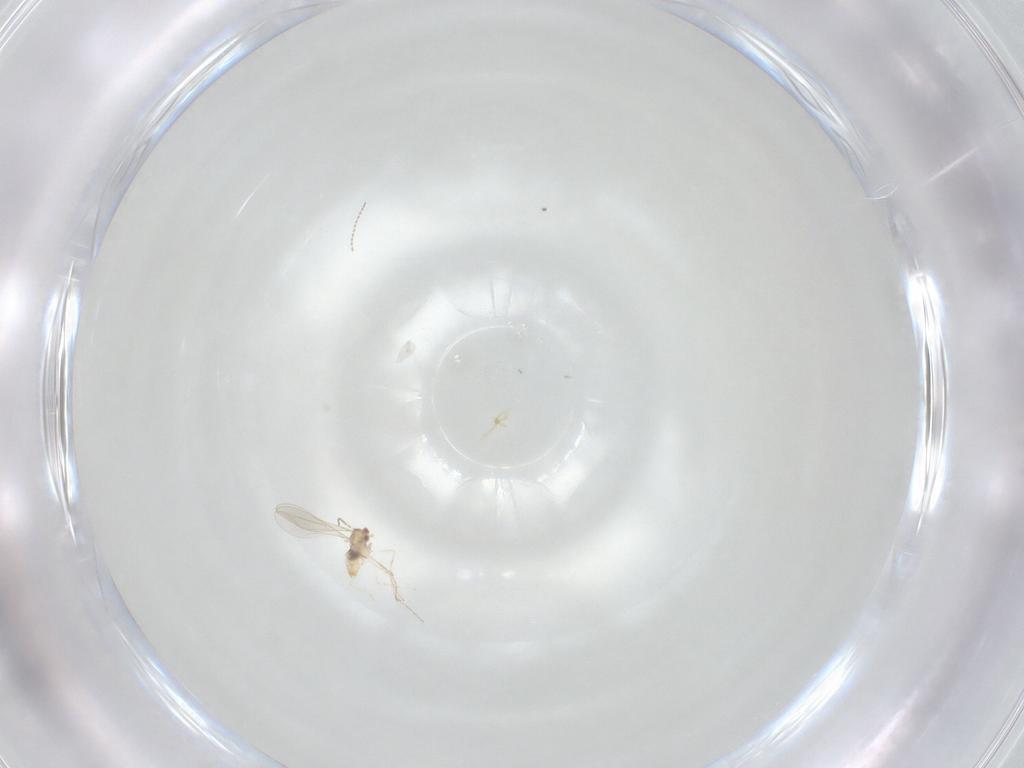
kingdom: Animalia
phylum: Arthropoda
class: Insecta
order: Diptera
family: Cecidomyiidae
